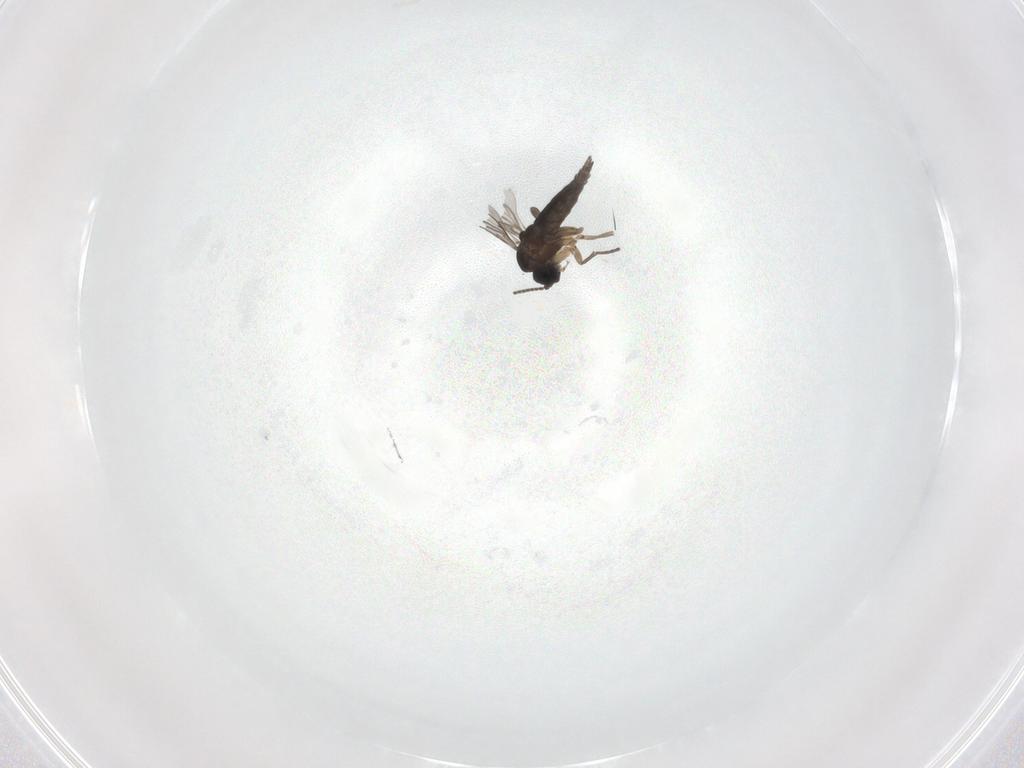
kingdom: Animalia
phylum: Arthropoda
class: Insecta
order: Diptera
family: Sciaridae
